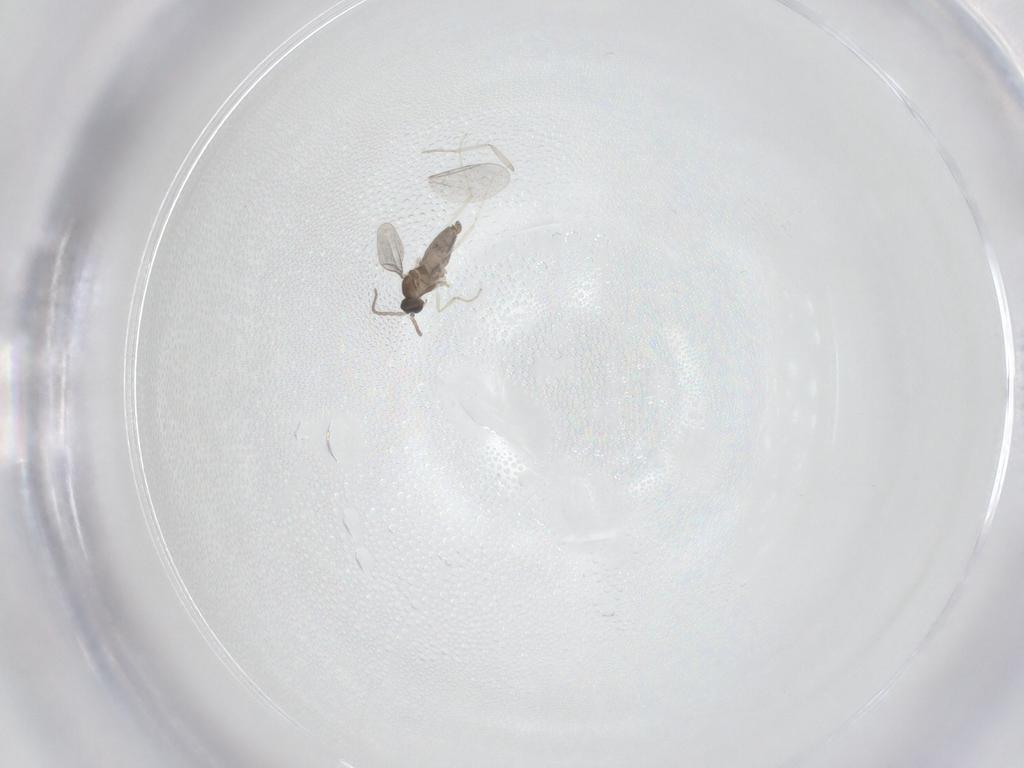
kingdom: Animalia
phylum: Arthropoda
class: Insecta
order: Diptera
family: Cecidomyiidae
